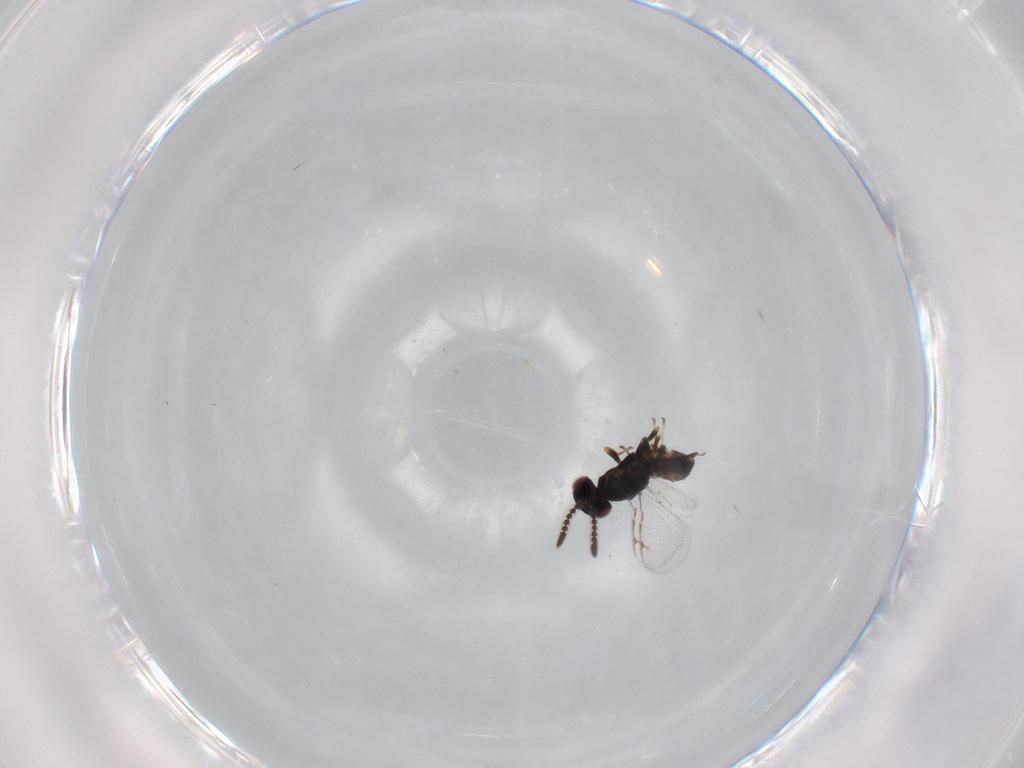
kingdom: Animalia
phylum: Arthropoda
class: Insecta
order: Hymenoptera
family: Pteromalidae
